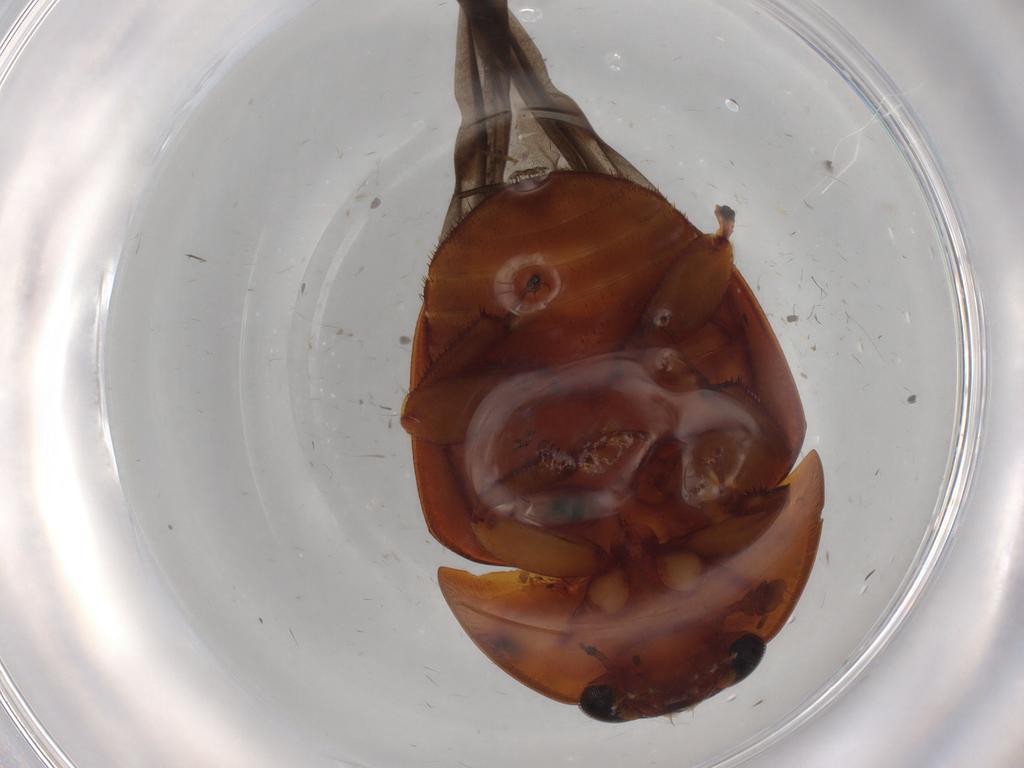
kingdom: Animalia
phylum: Arthropoda
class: Insecta
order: Coleoptera
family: Nitidulidae
